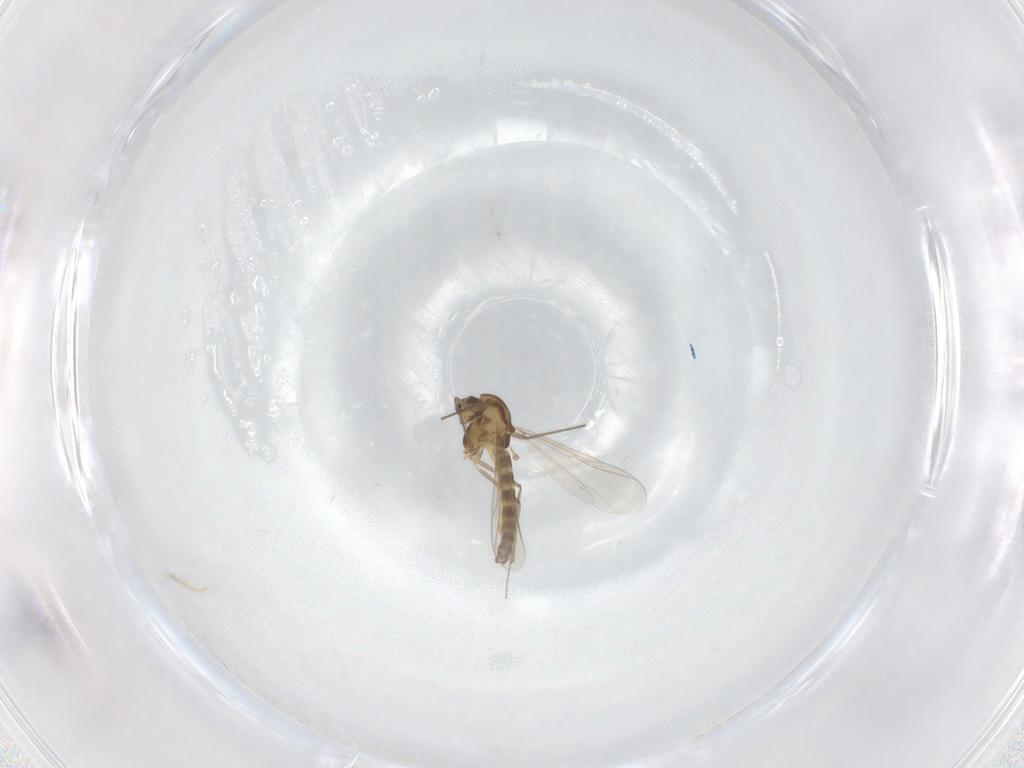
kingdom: Animalia
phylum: Arthropoda
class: Insecta
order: Diptera
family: Chironomidae
